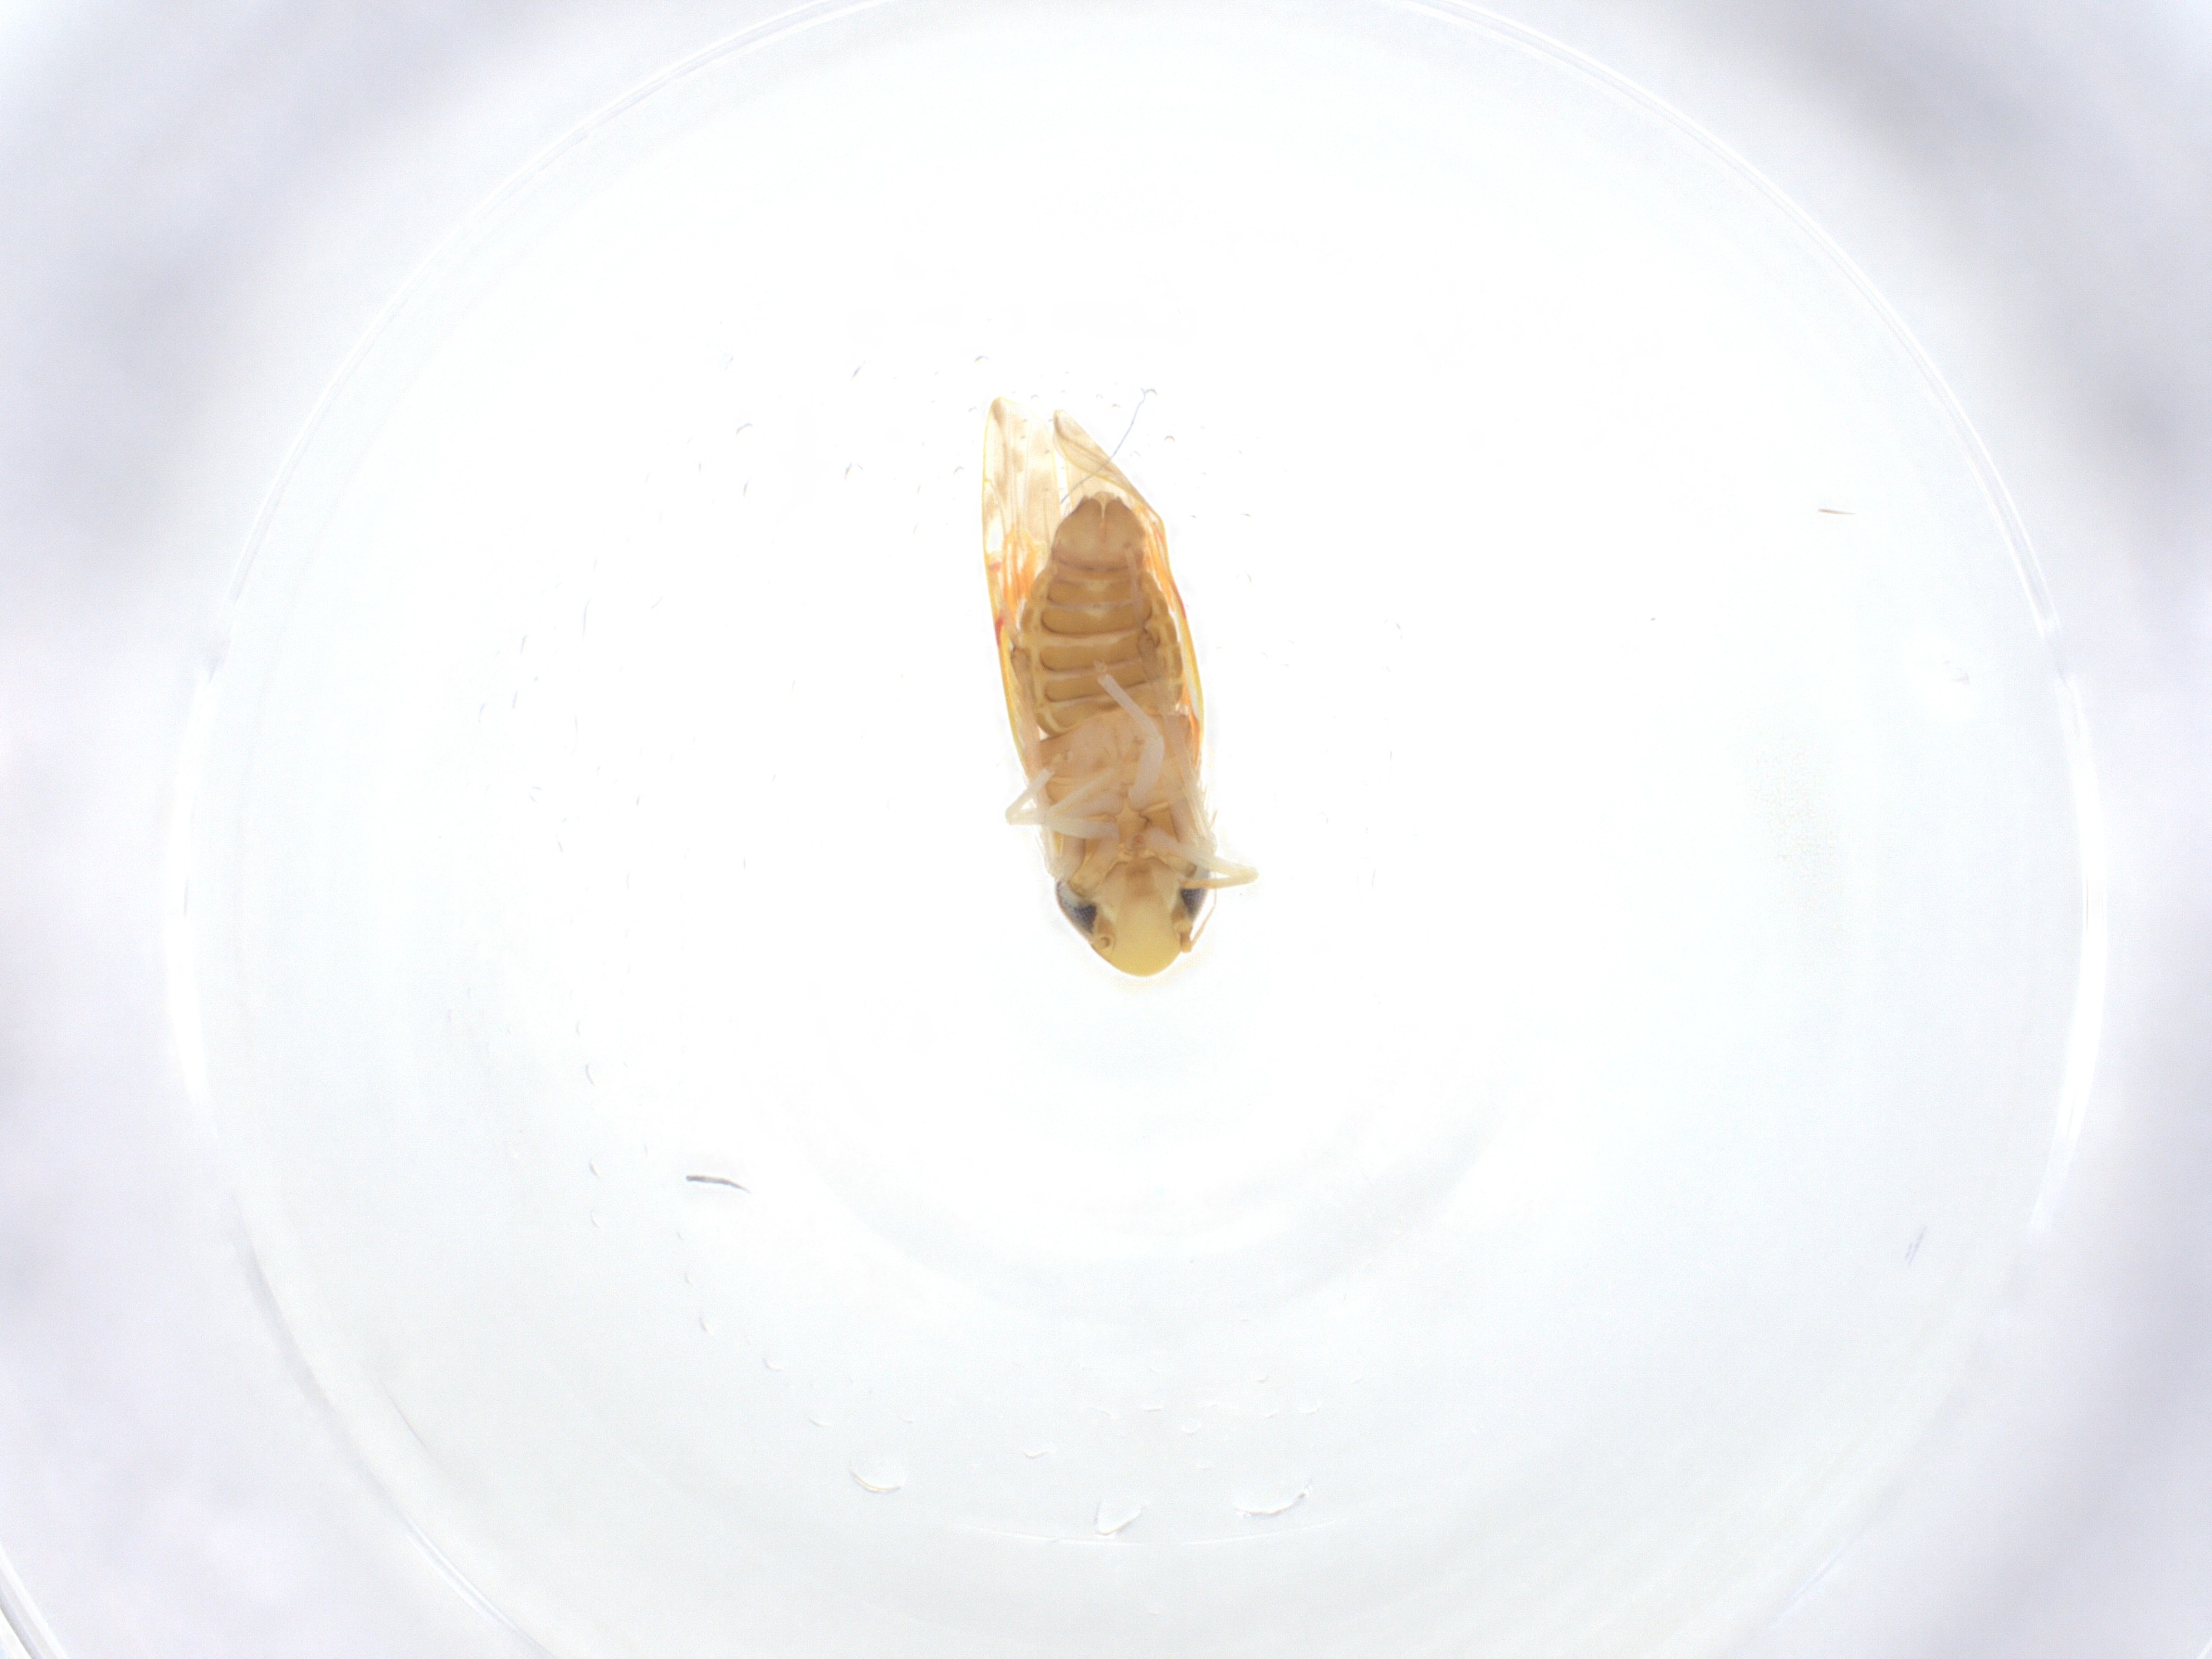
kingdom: Animalia
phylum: Arthropoda
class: Insecta
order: Hemiptera
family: Cicadellidae
